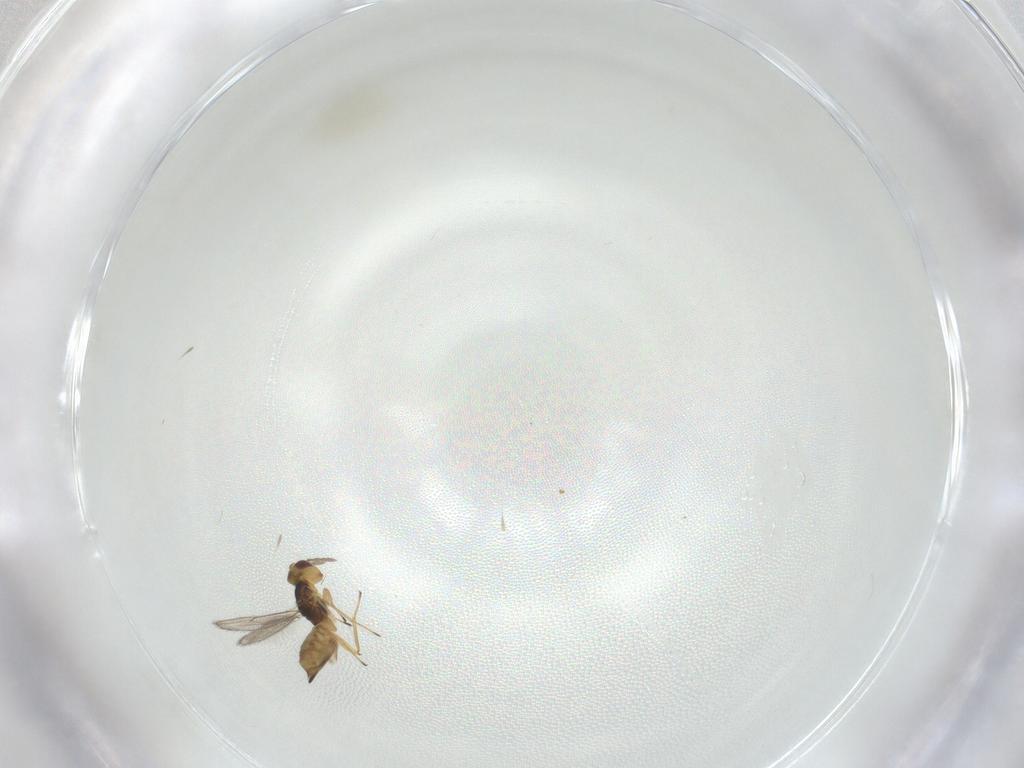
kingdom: Animalia
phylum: Arthropoda
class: Insecta
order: Hymenoptera
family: Eulophidae
